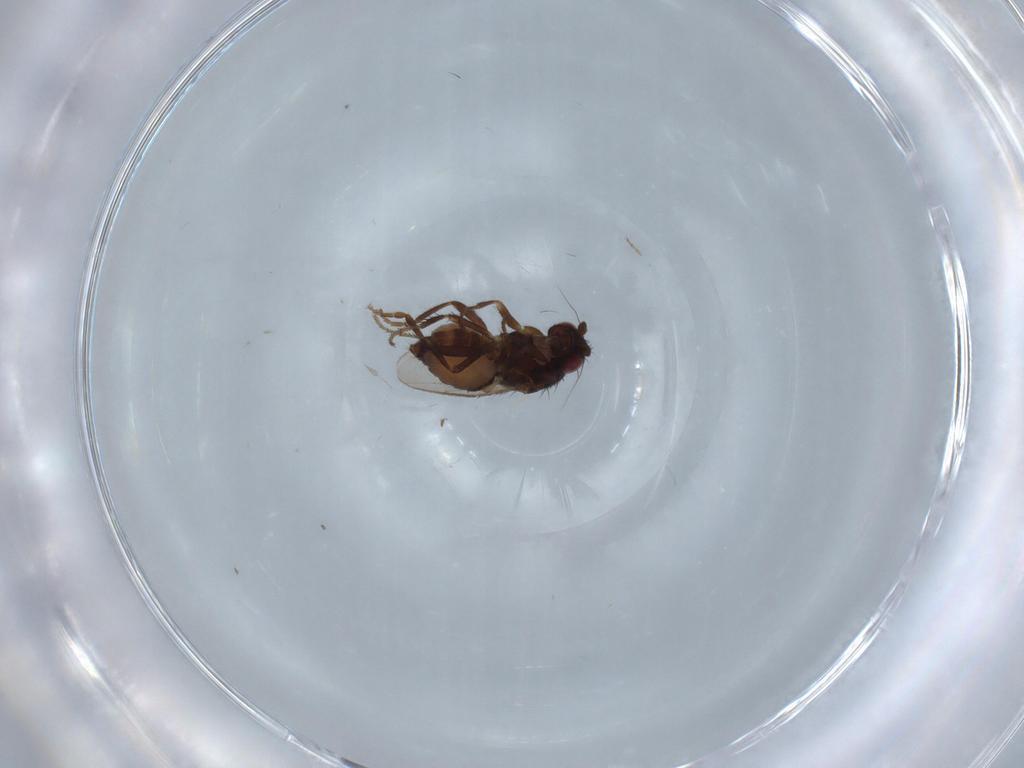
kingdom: Animalia
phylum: Arthropoda
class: Insecta
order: Diptera
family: Sphaeroceridae
